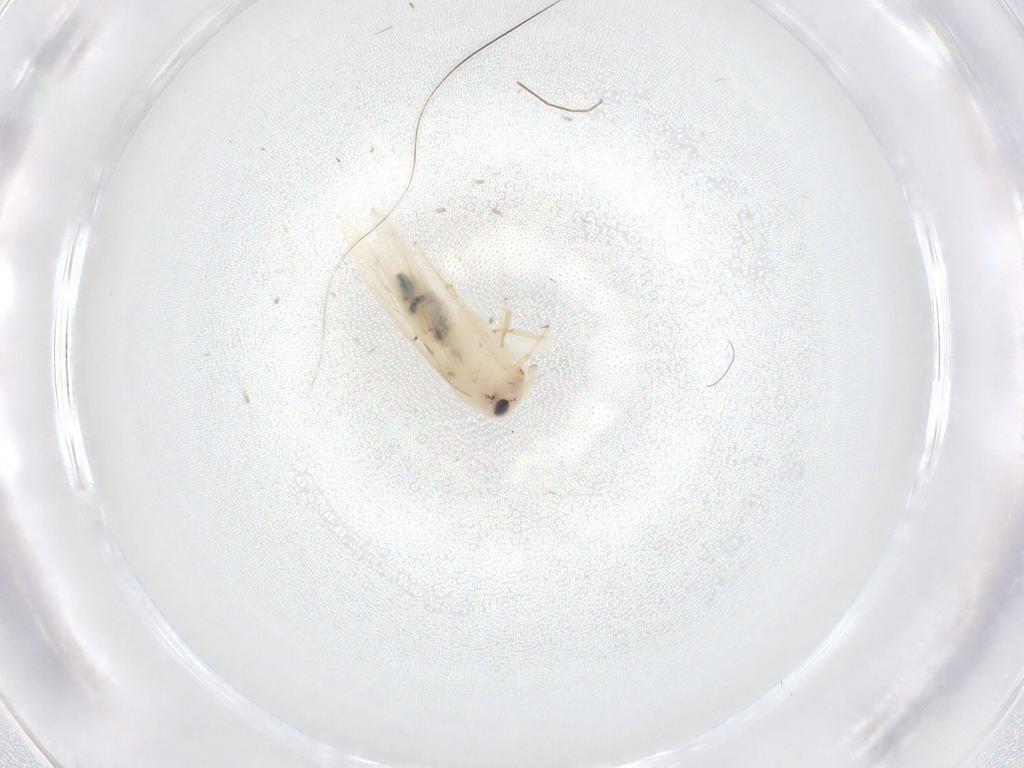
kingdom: Animalia
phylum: Arthropoda
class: Insecta
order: Psocodea
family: Lepidopsocidae
